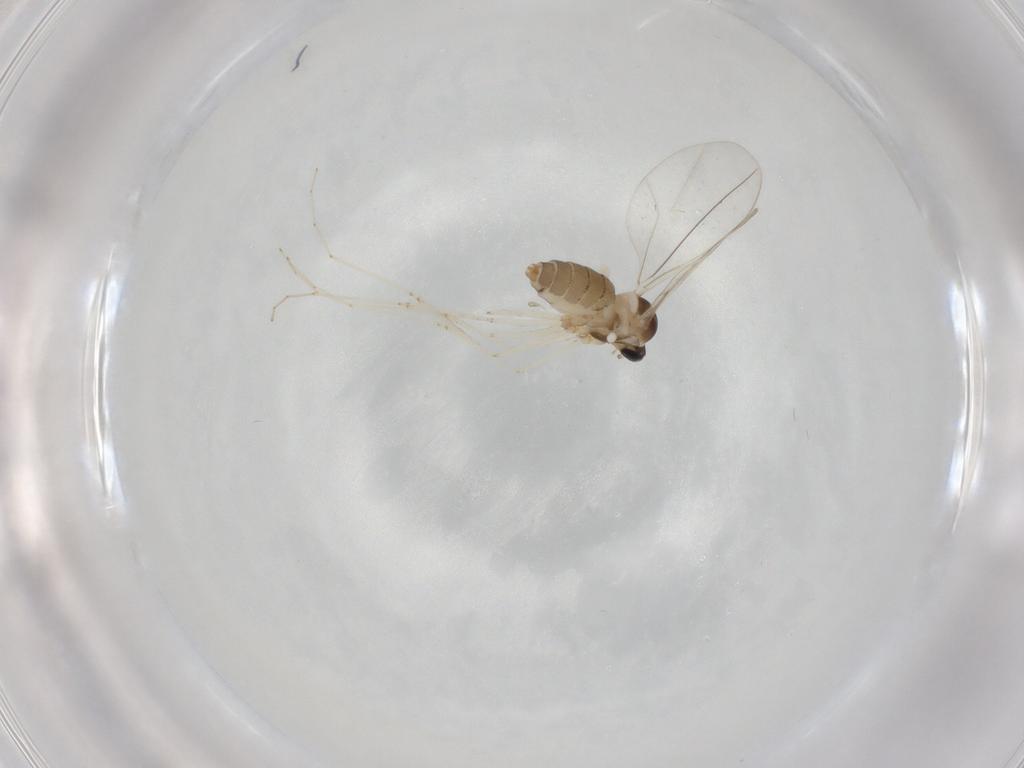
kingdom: Animalia
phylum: Arthropoda
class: Insecta
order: Diptera
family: Cecidomyiidae
